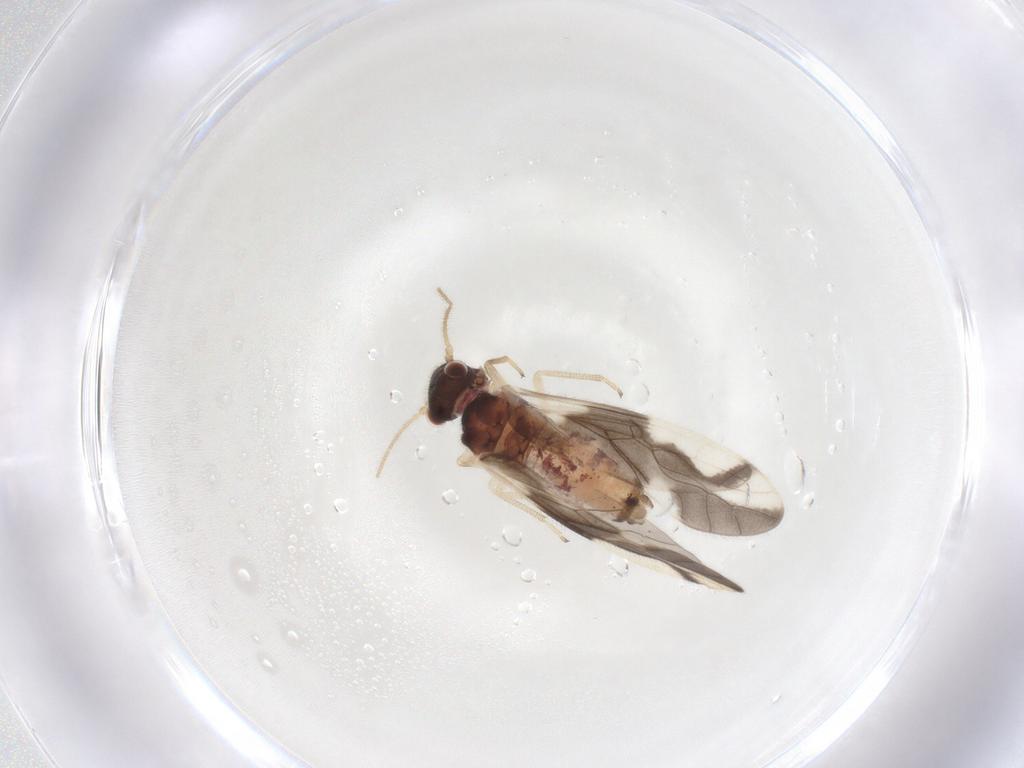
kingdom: Animalia
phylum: Arthropoda
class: Insecta
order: Psocodea
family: Caeciliusidae
